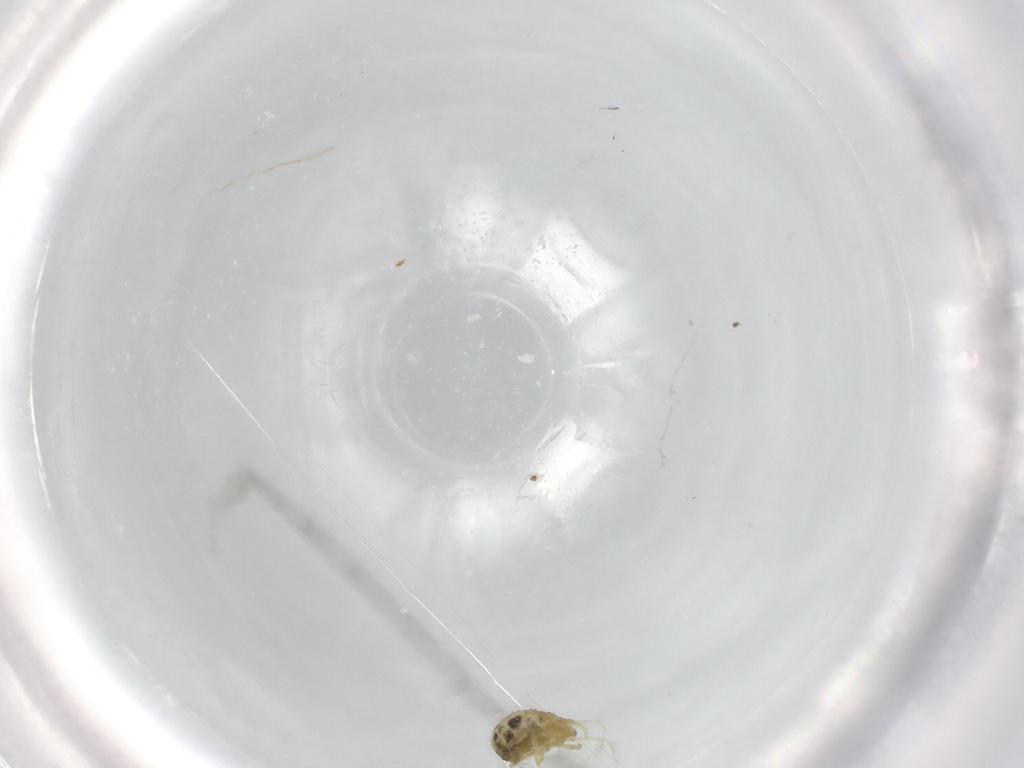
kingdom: Animalia
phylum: Arthropoda
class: Arachnida
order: Trombidiformes
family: Tetranychidae
